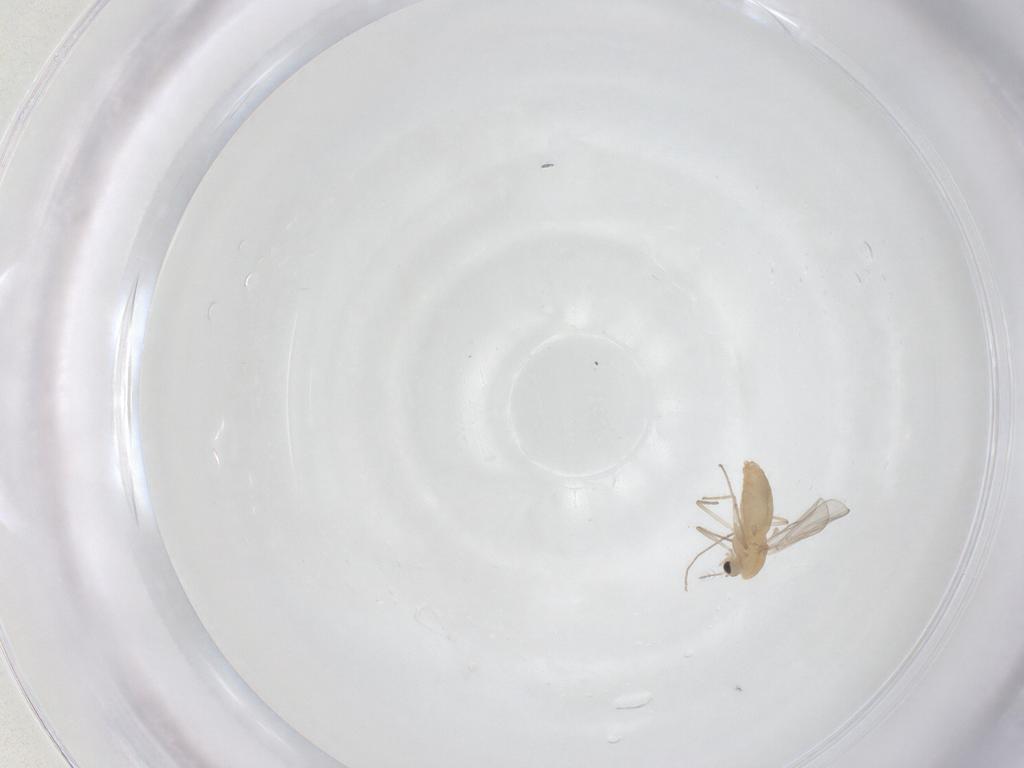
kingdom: Animalia
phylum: Arthropoda
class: Insecta
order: Diptera
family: Chironomidae
